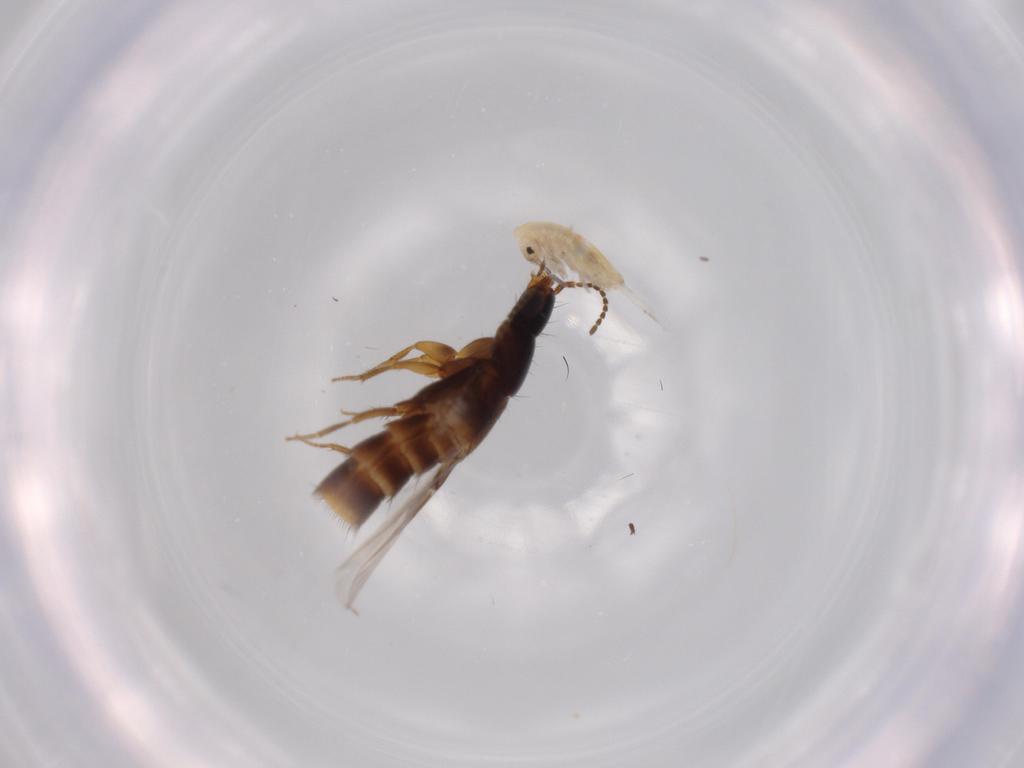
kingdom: Animalia
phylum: Arthropoda
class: Collembola
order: Entomobryomorpha
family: Entomobryidae
